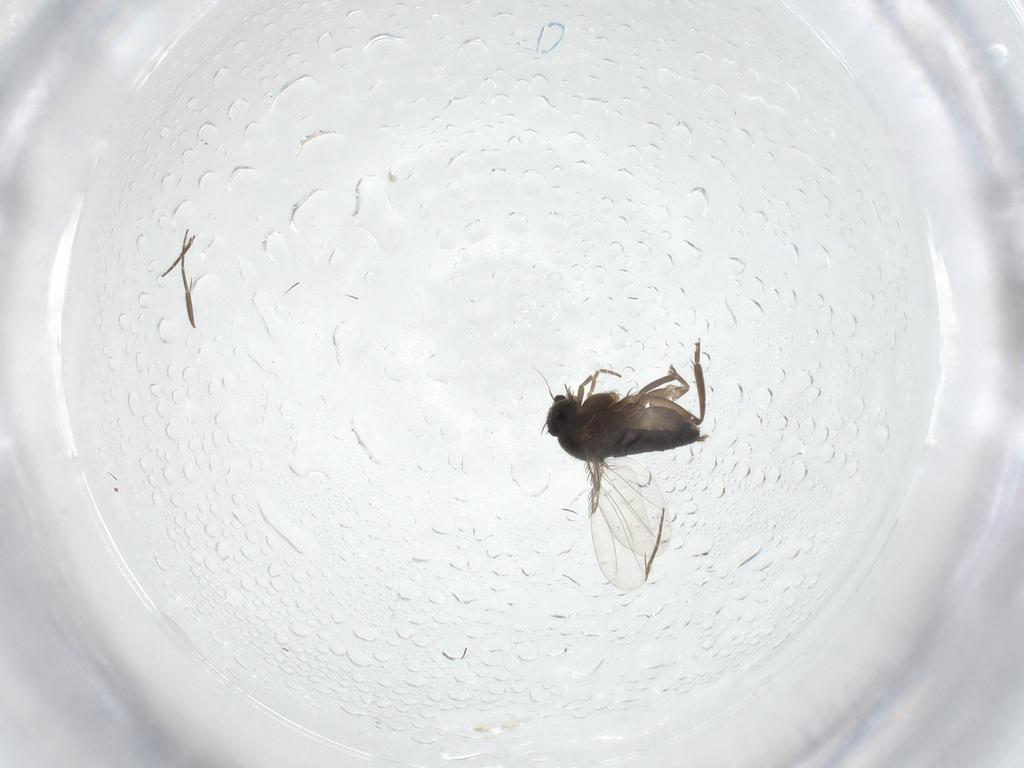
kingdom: Animalia
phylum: Arthropoda
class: Insecta
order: Diptera
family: Phoridae
